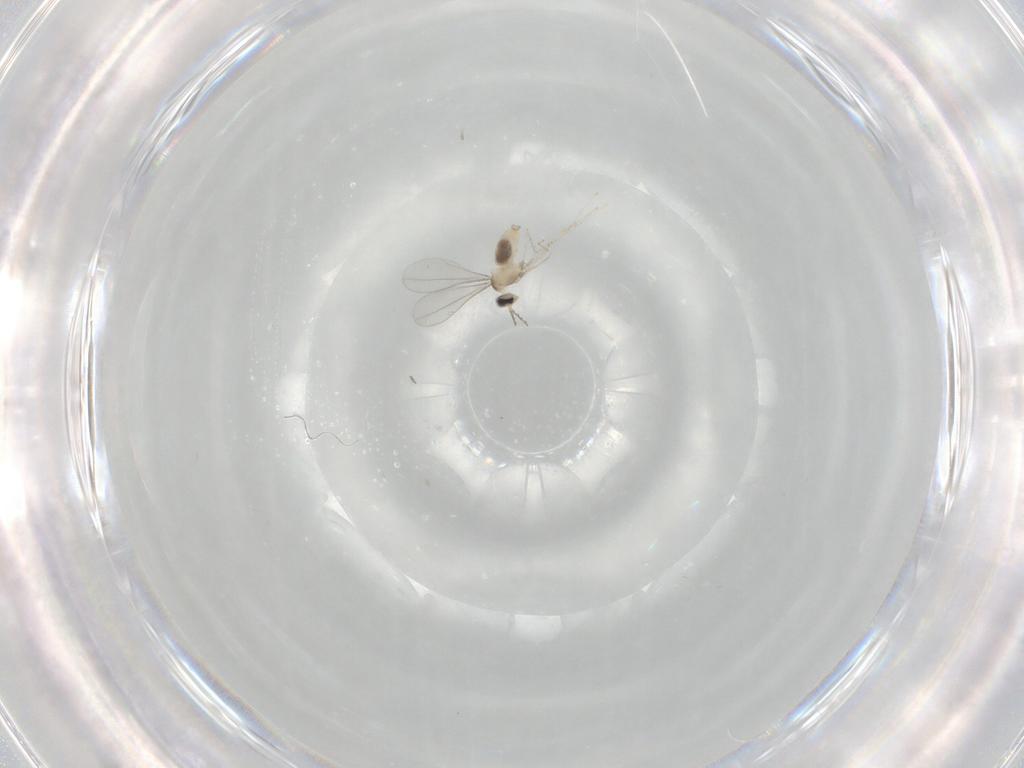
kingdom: Animalia
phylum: Arthropoda
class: Insecta
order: Diptera
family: Cecidomyiidae
